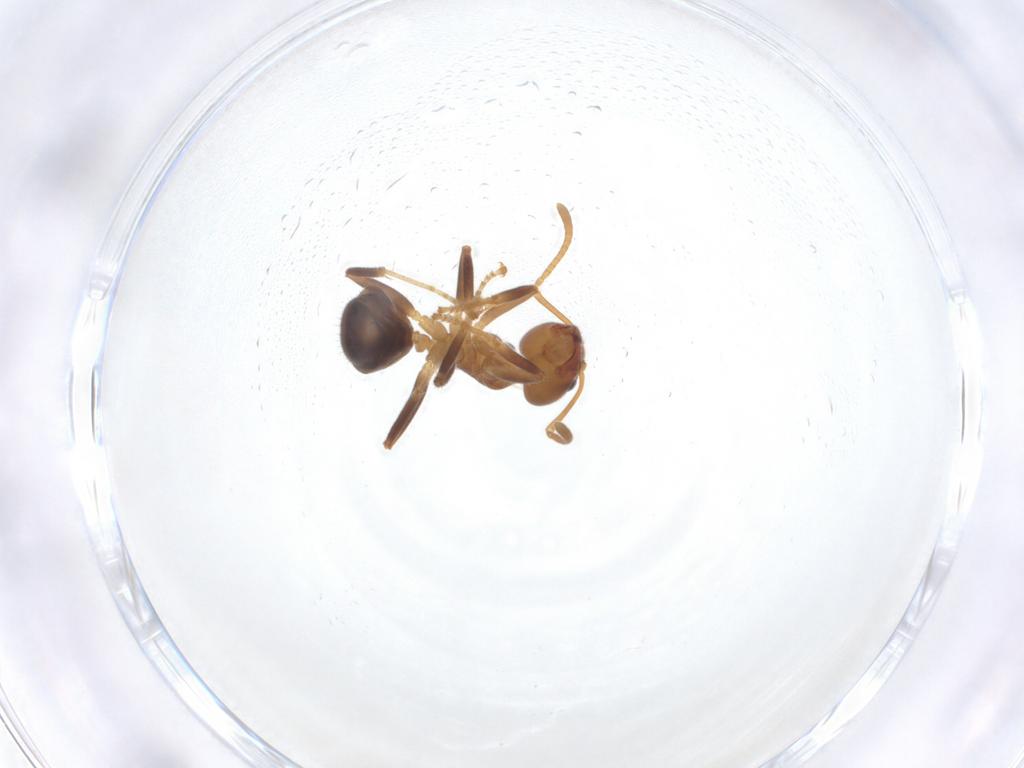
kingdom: Animalia
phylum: Arthropoda
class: Insecta
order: Hymenoptera
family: Formicidae
